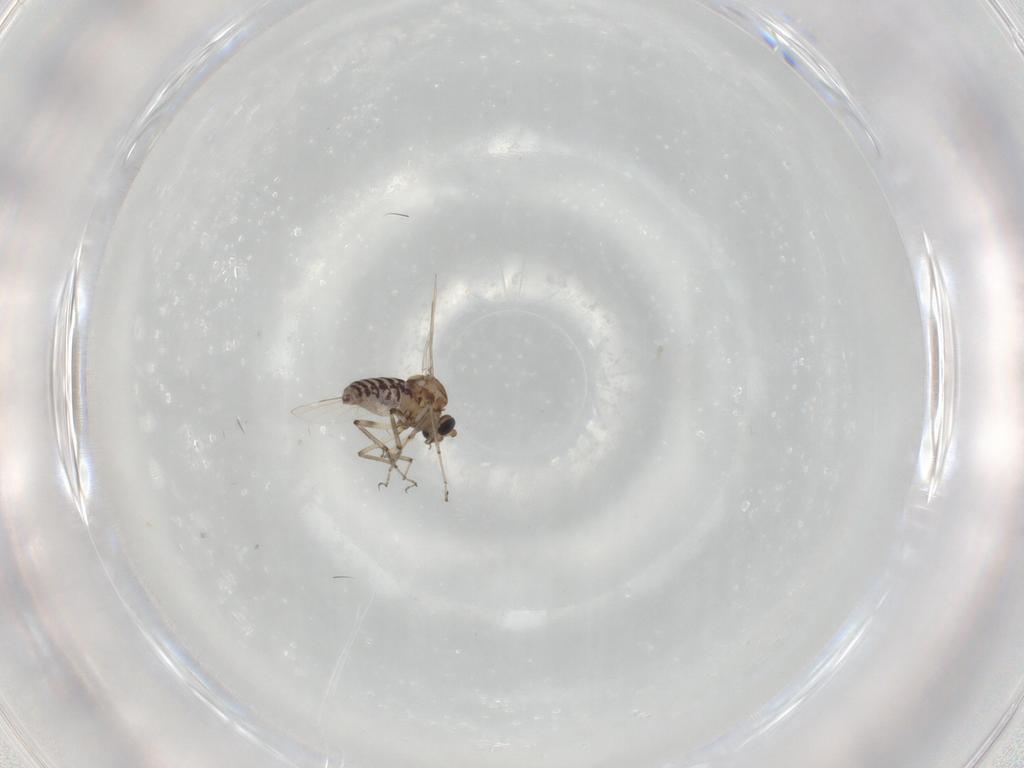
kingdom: Animalia
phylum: Arthropoda
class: Insecta
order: Diptera
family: Ceratopogonidae
